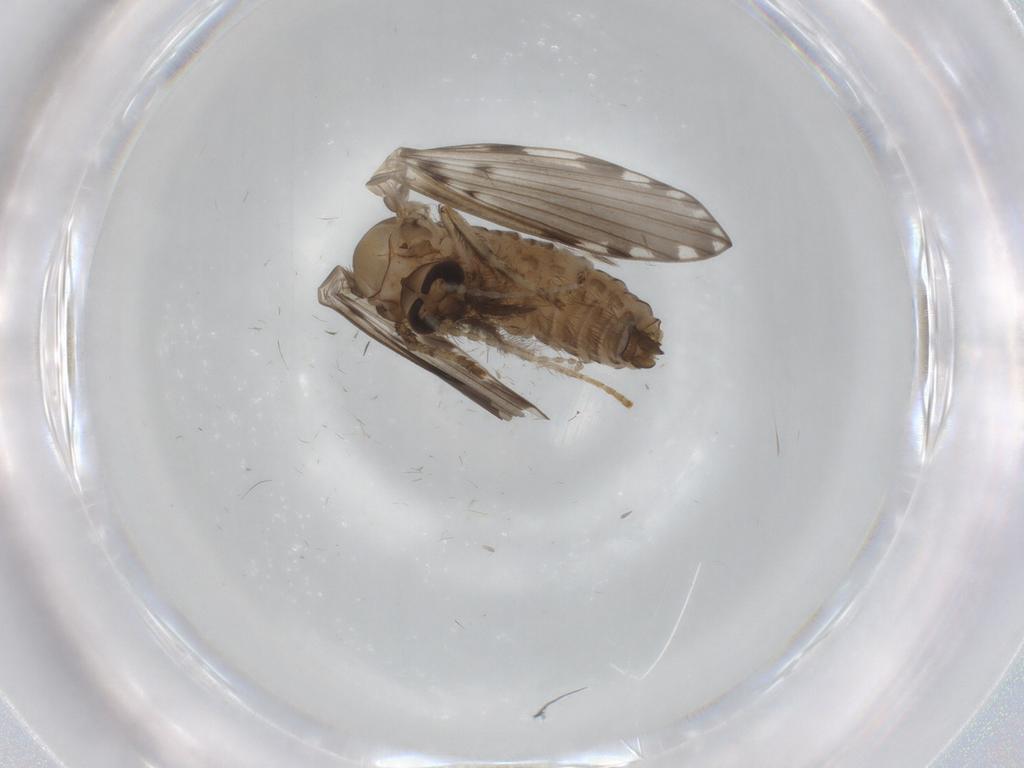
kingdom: Animalia
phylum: Arthropoda
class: Insecta
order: Diptera
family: Psychodidae
